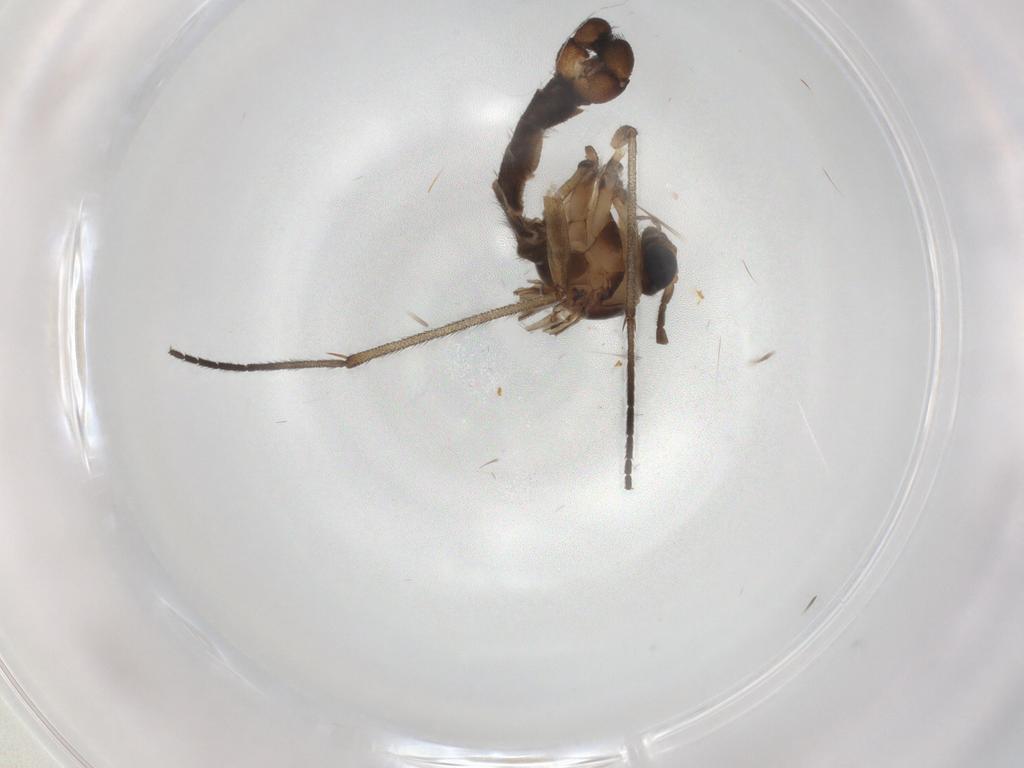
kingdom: Animalia
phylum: Arthropoda
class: Insecta
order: Diptera
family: Sciaridae
